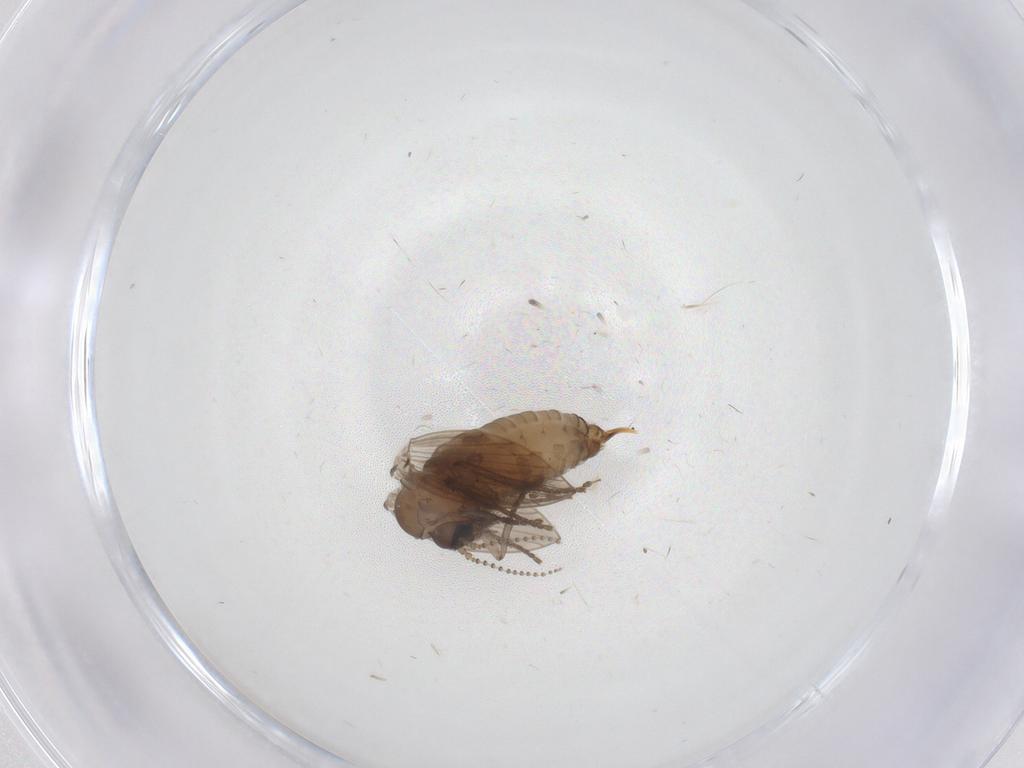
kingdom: Animalia
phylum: Arthropoda
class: Insecta
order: Diptera
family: Psychodidae
